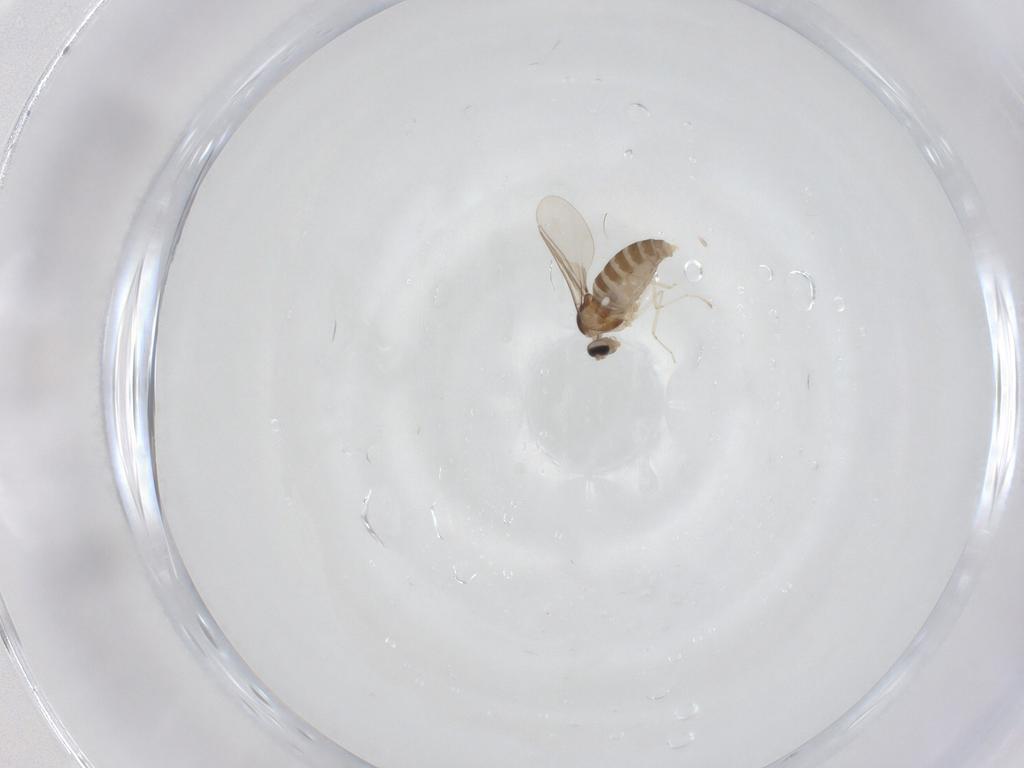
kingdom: Animalia
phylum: Arthropoda
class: Insecta
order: Diptera
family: Cecidomyiidae
